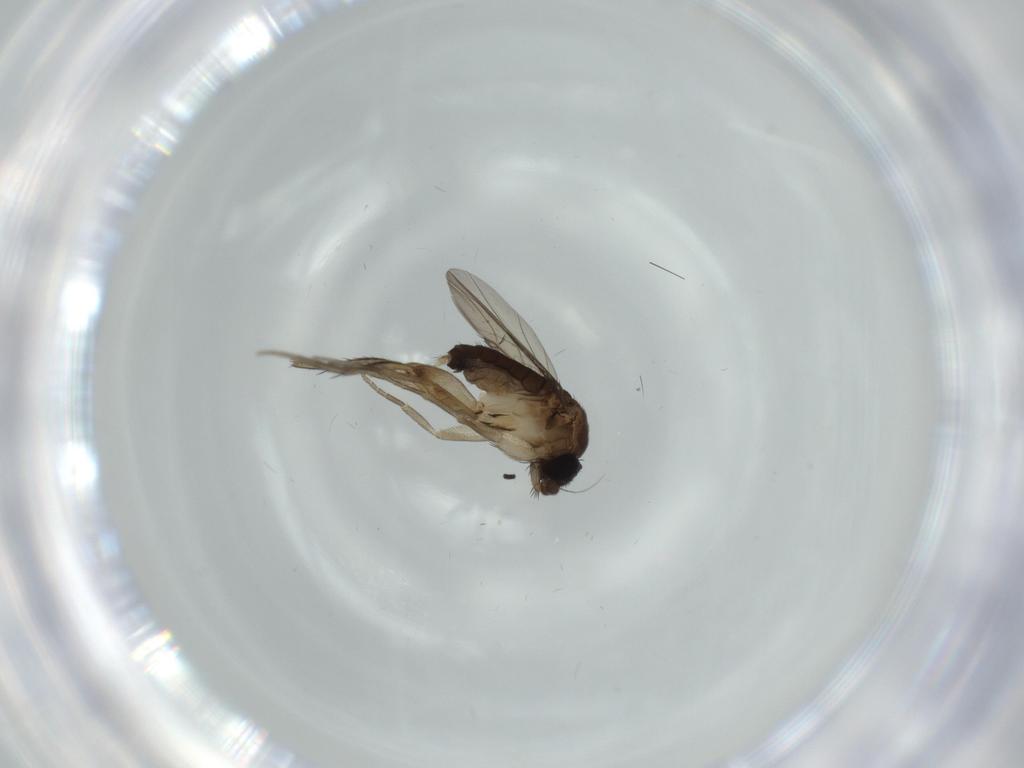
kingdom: Animalia
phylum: Arthropoda
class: Insecta
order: Diptera
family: Phoridae
